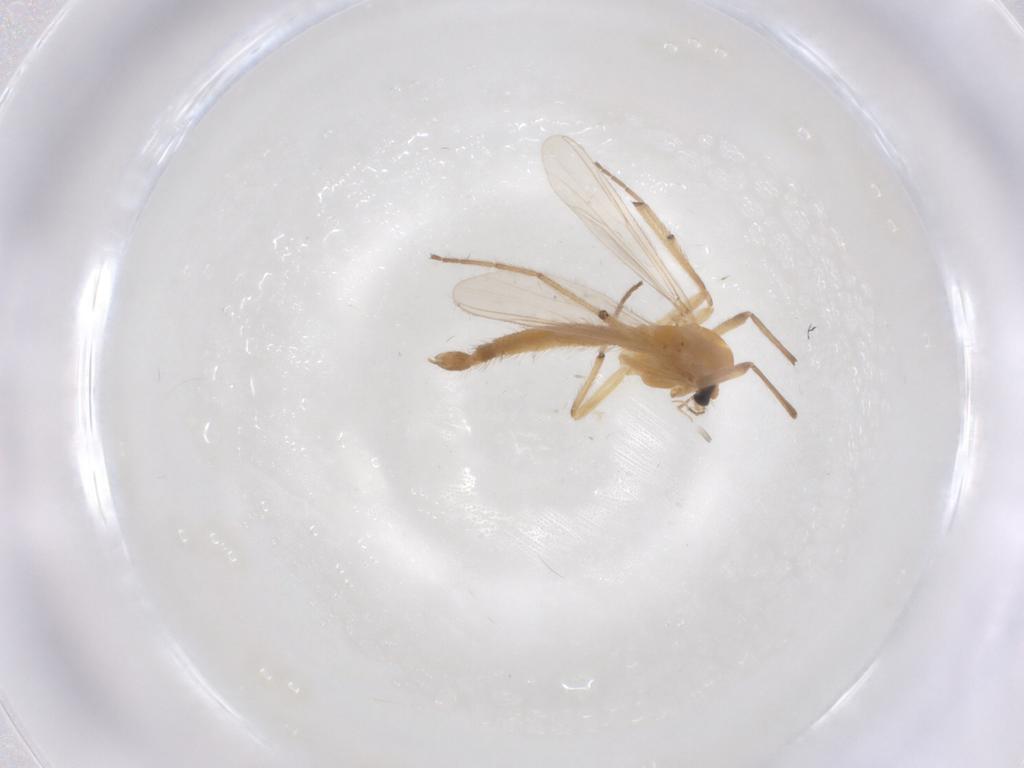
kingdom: Animalia
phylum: Arthropoda
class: Insecta
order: Diptera
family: Chironomidae
